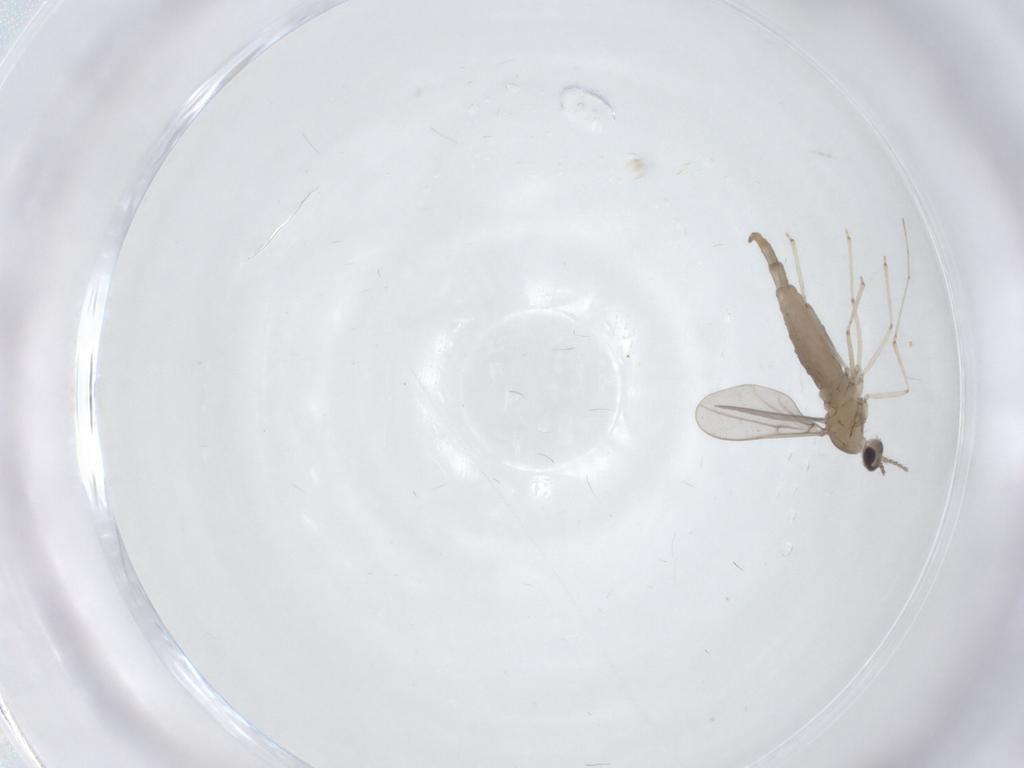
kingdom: Animalia
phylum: Arthropoda
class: Insecta
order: Diptera
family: Cecidomyiidae
